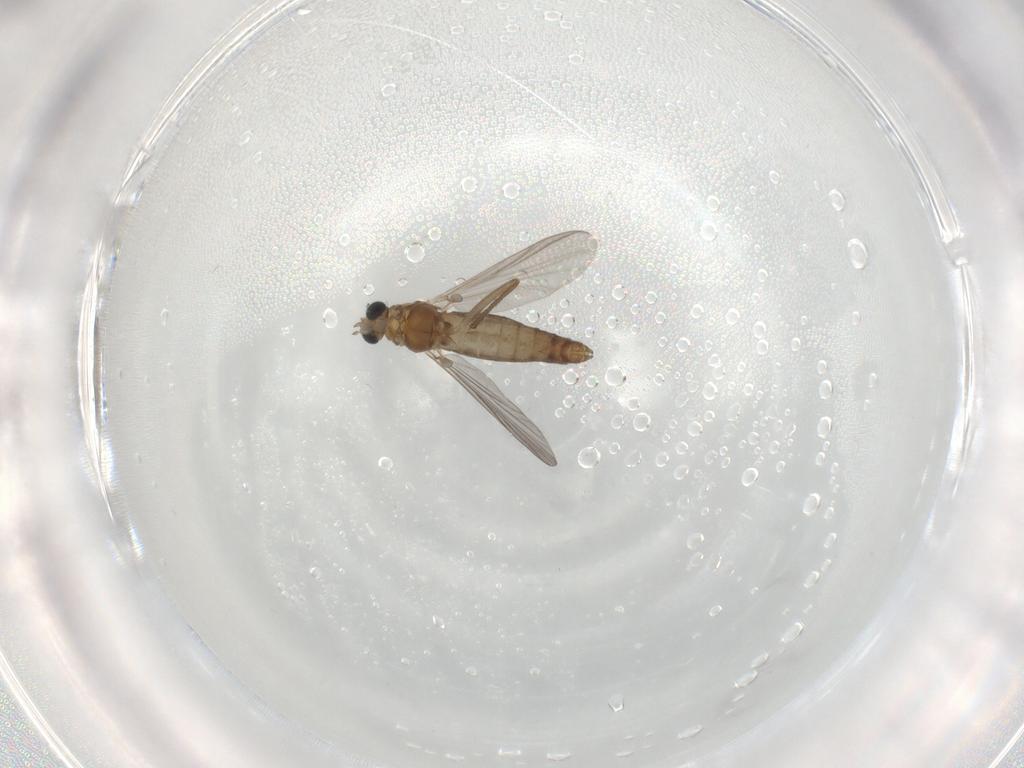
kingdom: Animalia
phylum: Arthropoda
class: Insecta
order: Diptera
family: Chironomidae
